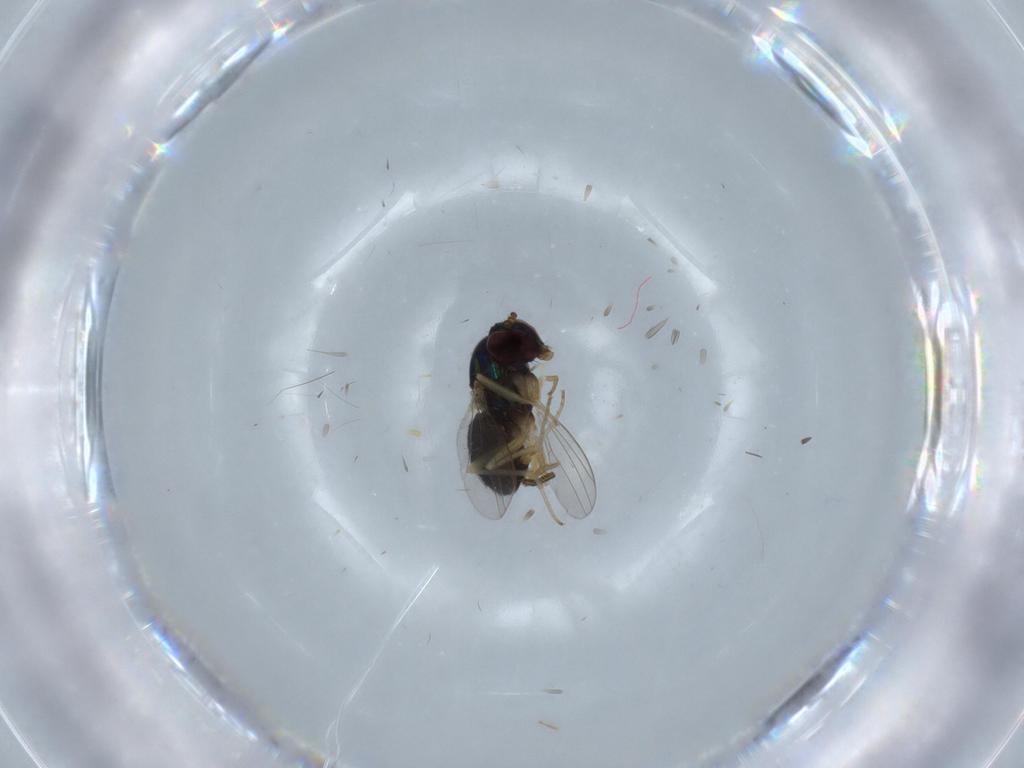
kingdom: Animalia
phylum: Arthropoda
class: Insecta
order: Diptera
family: Dolichopodidae
